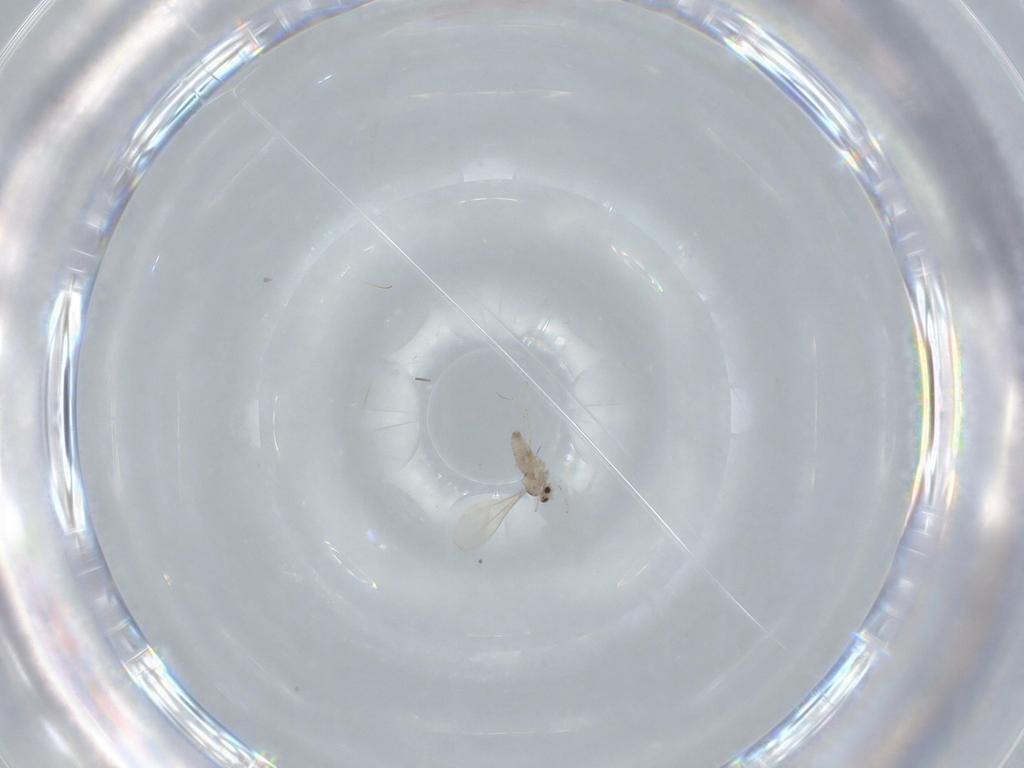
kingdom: Animalia
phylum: Arthropoda
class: Insecta
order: Diptera
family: Cecidomyiidae
